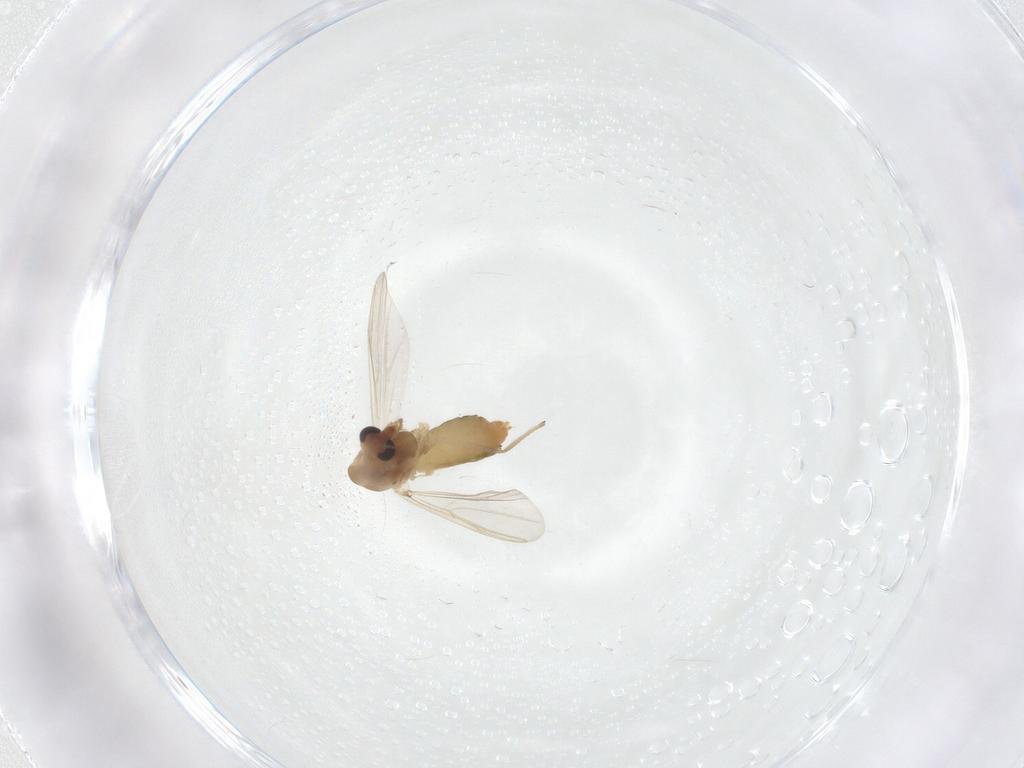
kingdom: Animalia
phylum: Arthropoda
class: Insecta
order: Diptera
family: Chironomidae
